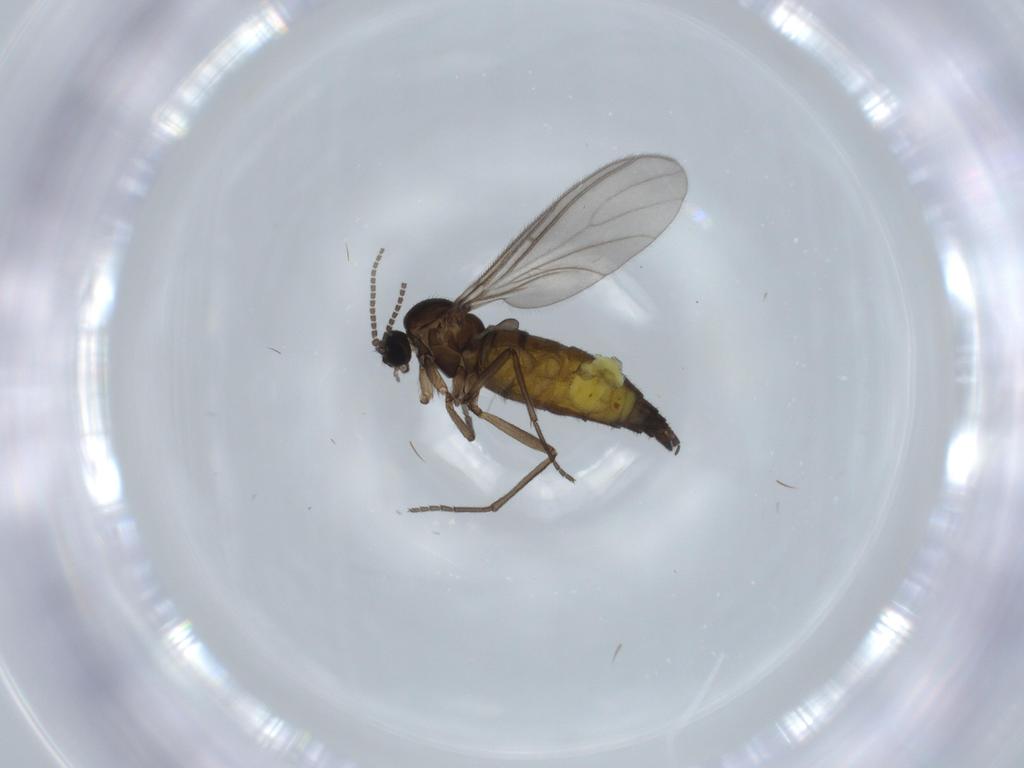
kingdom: Animalia
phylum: Arthropoda
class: Insecta
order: Diptera
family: Sciaridae
